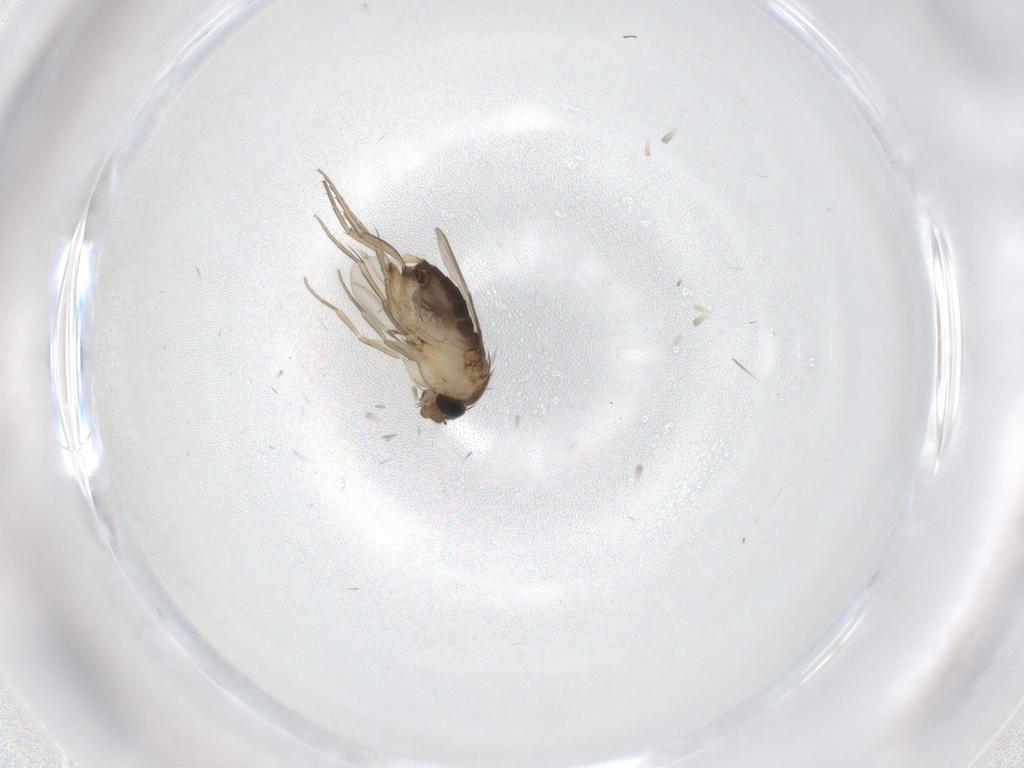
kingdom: Animalia
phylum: Arthropoda
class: Insecta
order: Diptera
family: Phoridae
